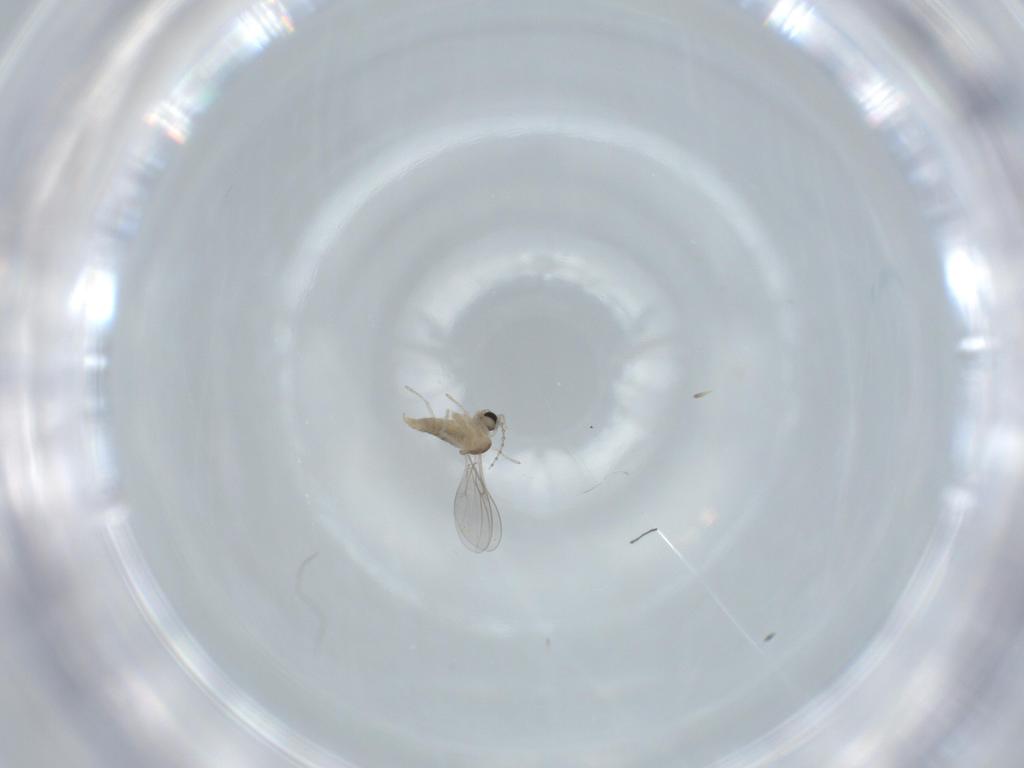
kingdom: Animalia
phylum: Arthropoda
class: Insecta
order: Diptera
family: Cecidomyiidae
